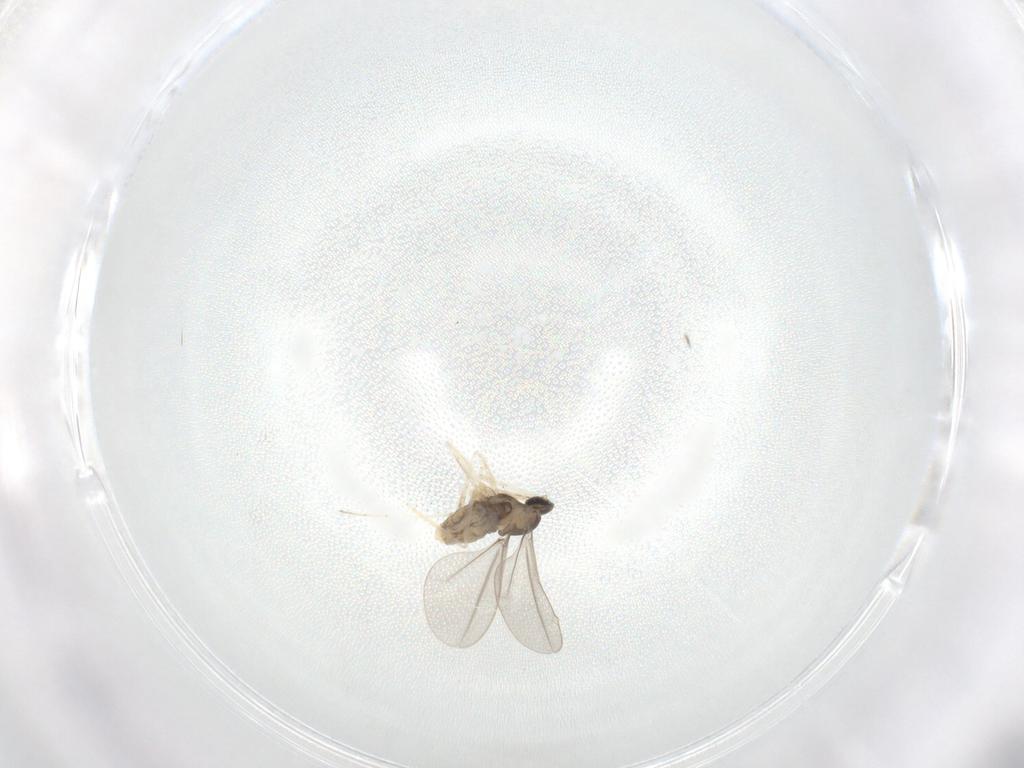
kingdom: Animalia
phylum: Arthropoda
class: Insecta
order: Diptera
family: Cecidomyiidae
